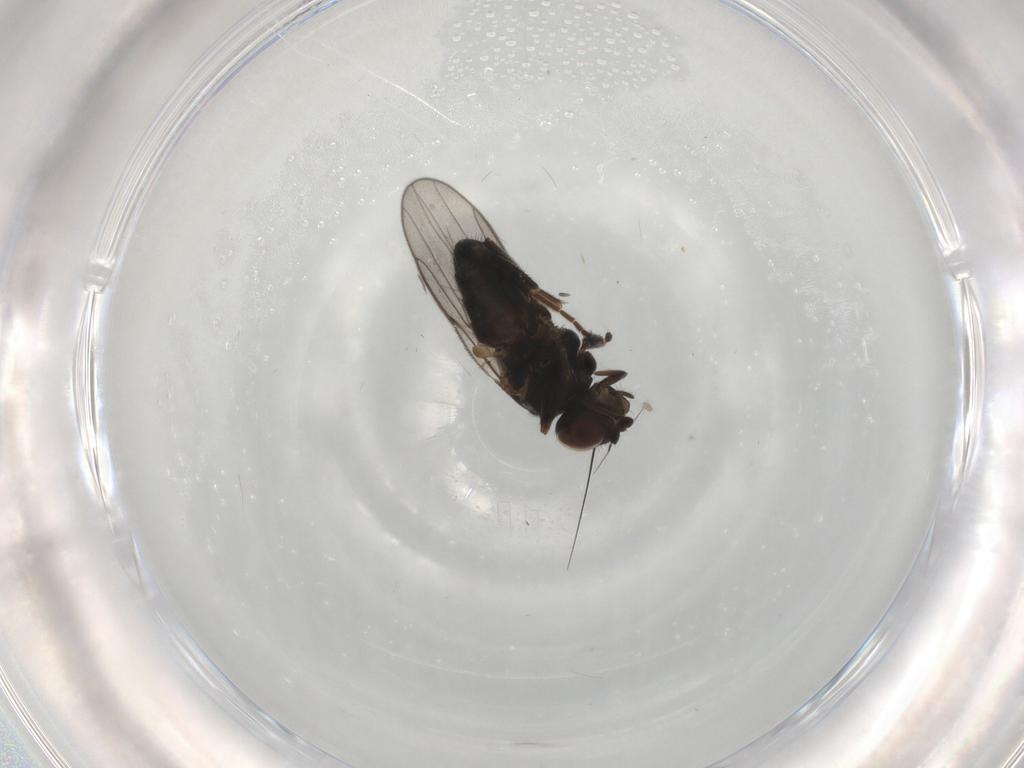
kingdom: Animalia
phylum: Arthropoda
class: Insecta
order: Diptera
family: Chloropidae
